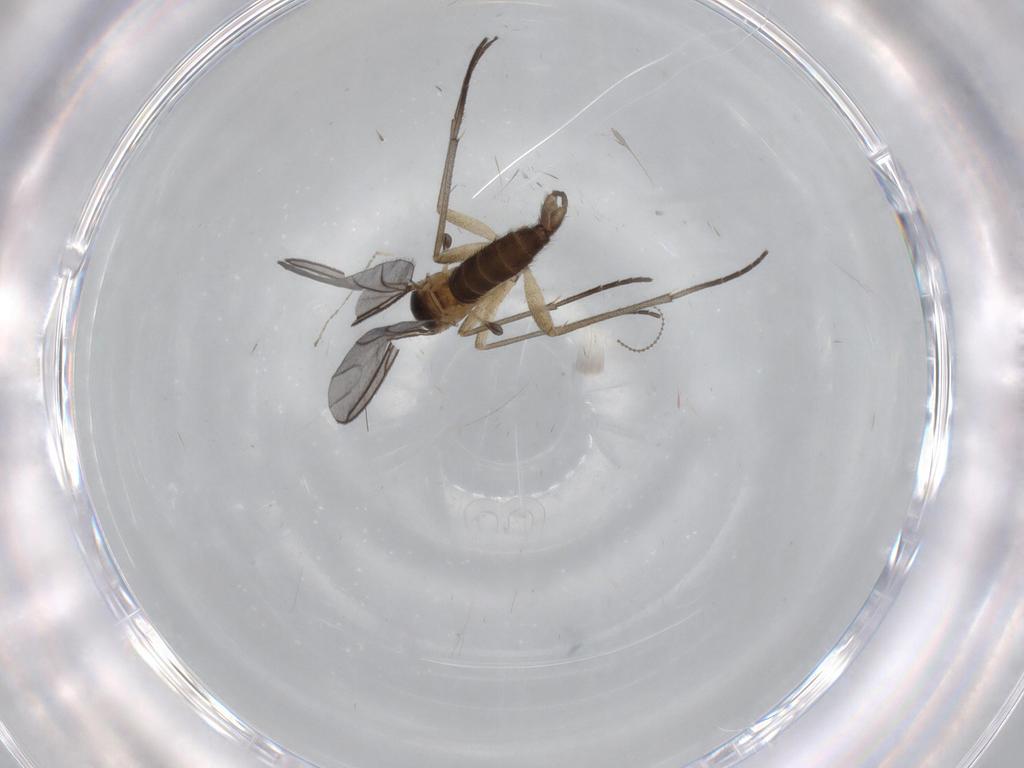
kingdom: Animalia
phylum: Arthropoda
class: Insecta
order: Diptera
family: Sciaridae
